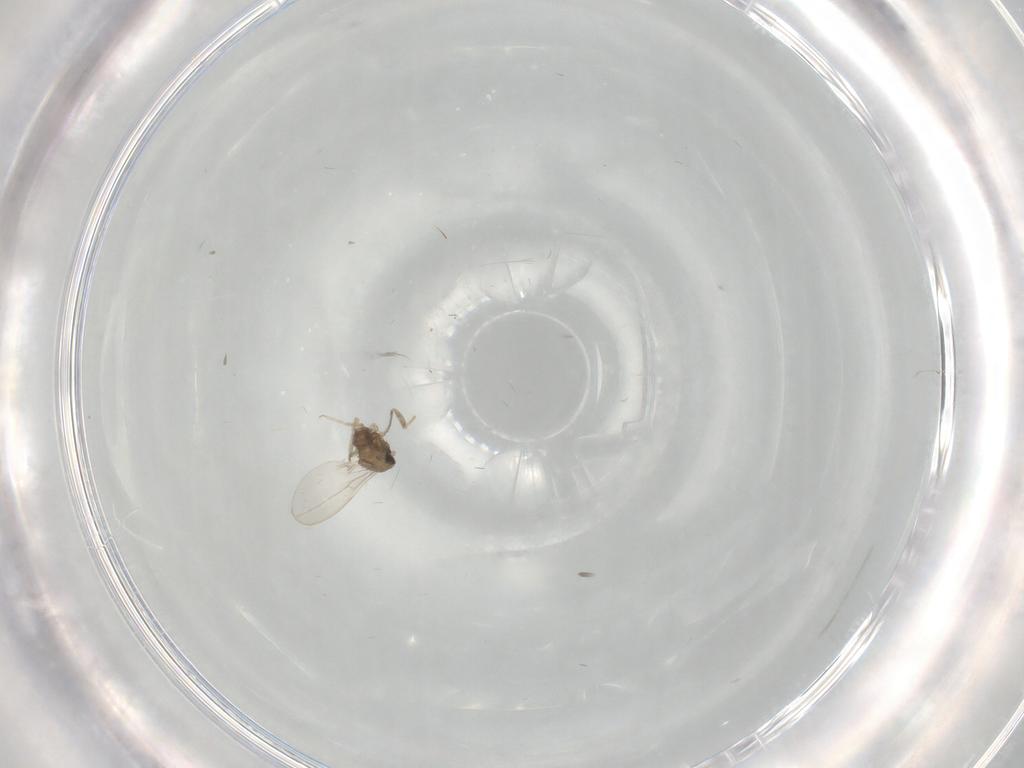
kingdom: Animalia
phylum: Arthropoda
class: Insecta
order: Diptera
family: Cecidomyiidae
